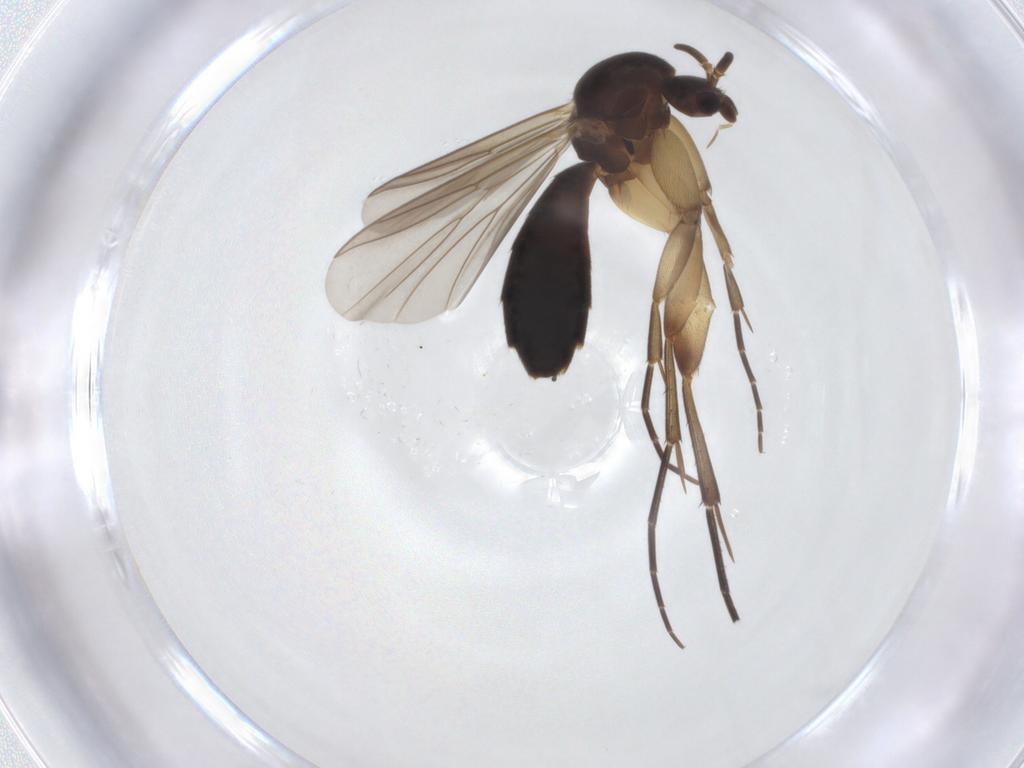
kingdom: Animalia
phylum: Arthropoda
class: Insecta
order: Diptera
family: Mycetophilidae
